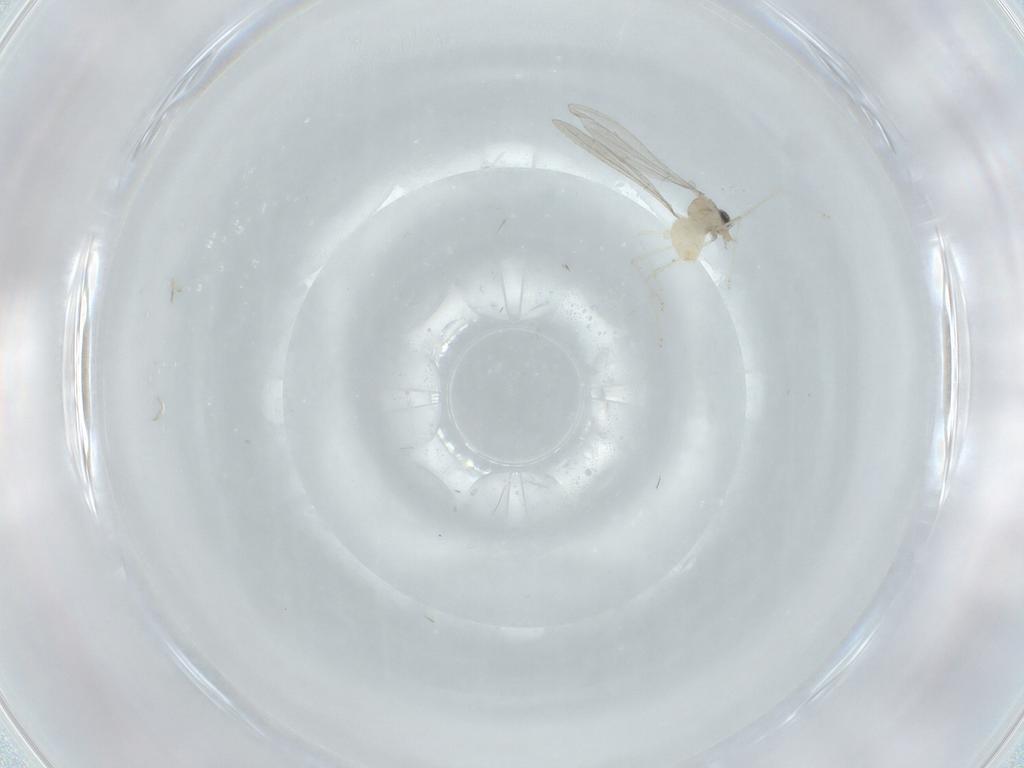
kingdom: Animalia
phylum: Arthropoda
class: Insecta
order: Diptera
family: Cecidomyiidae
